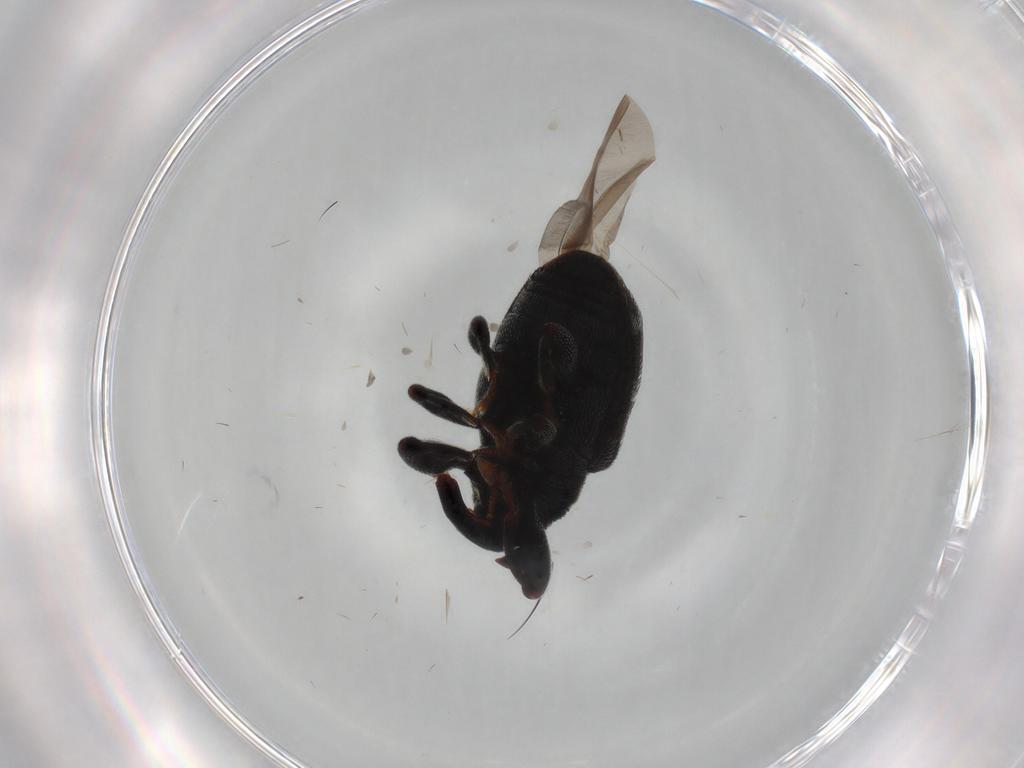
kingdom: Animalia
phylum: Arthropoda
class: Insecta
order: Coleoptera
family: Curculionidae
